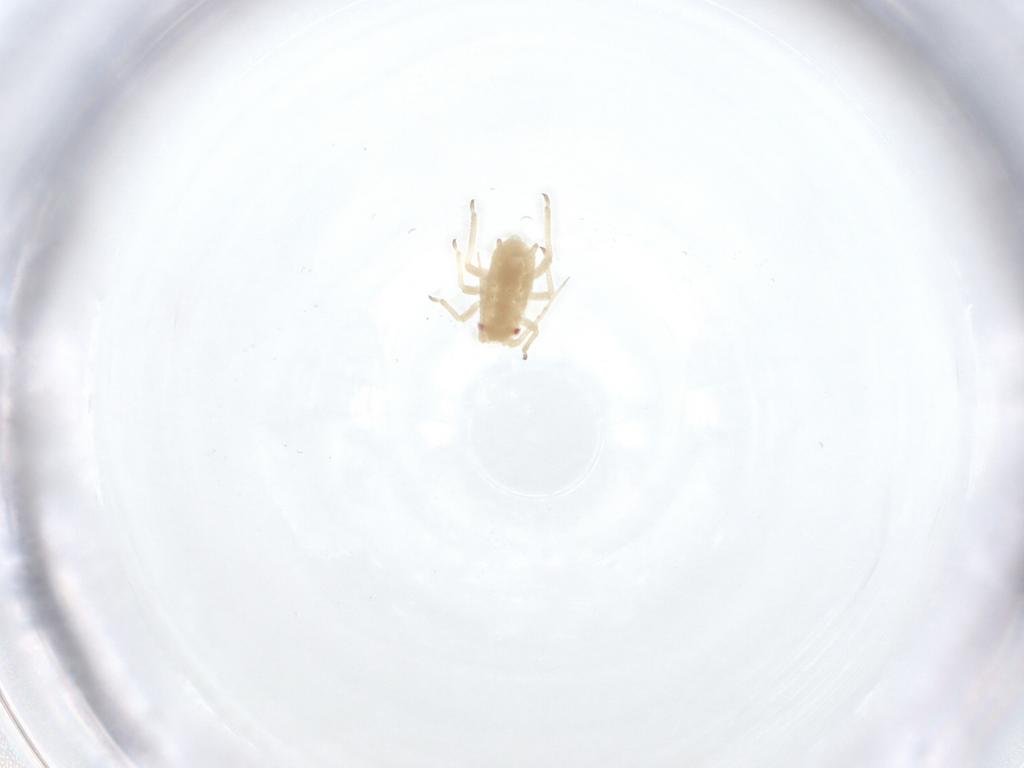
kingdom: Animalia
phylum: Arthropoda
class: Insecta
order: Hemiptera
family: Aphididae
